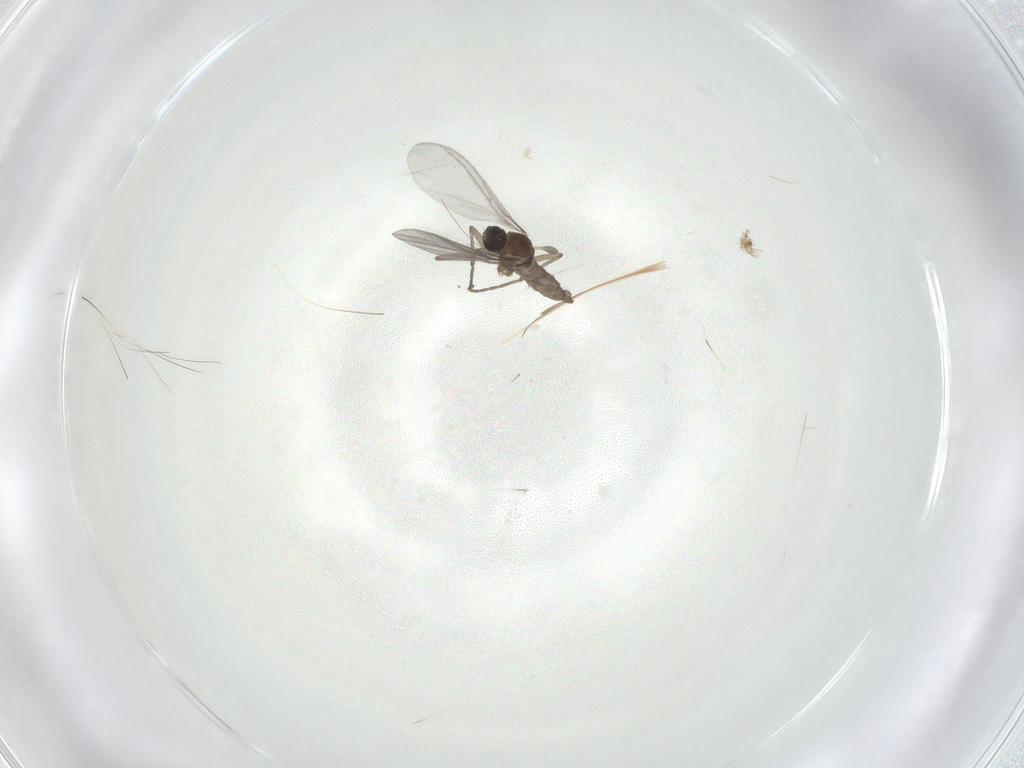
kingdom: Animalia
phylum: Arthropoda
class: Insecta
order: Diptera
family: Sciaridae
